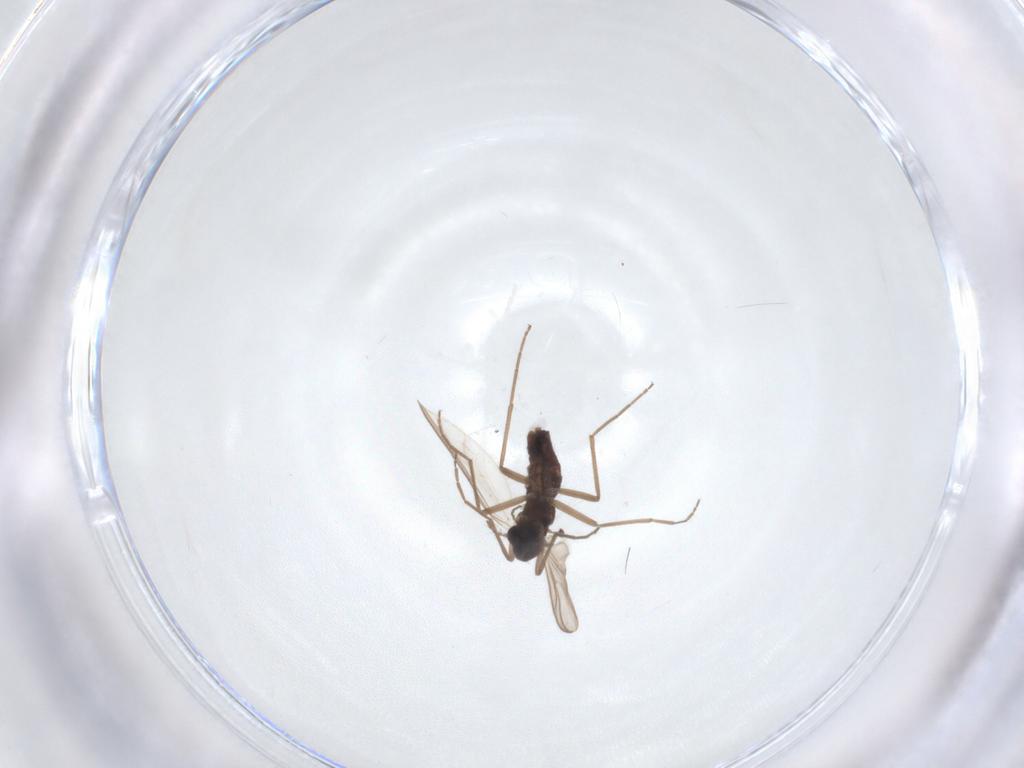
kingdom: Animalia
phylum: Arthropoda
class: Insecta
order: Diptera
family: Chironomidae
